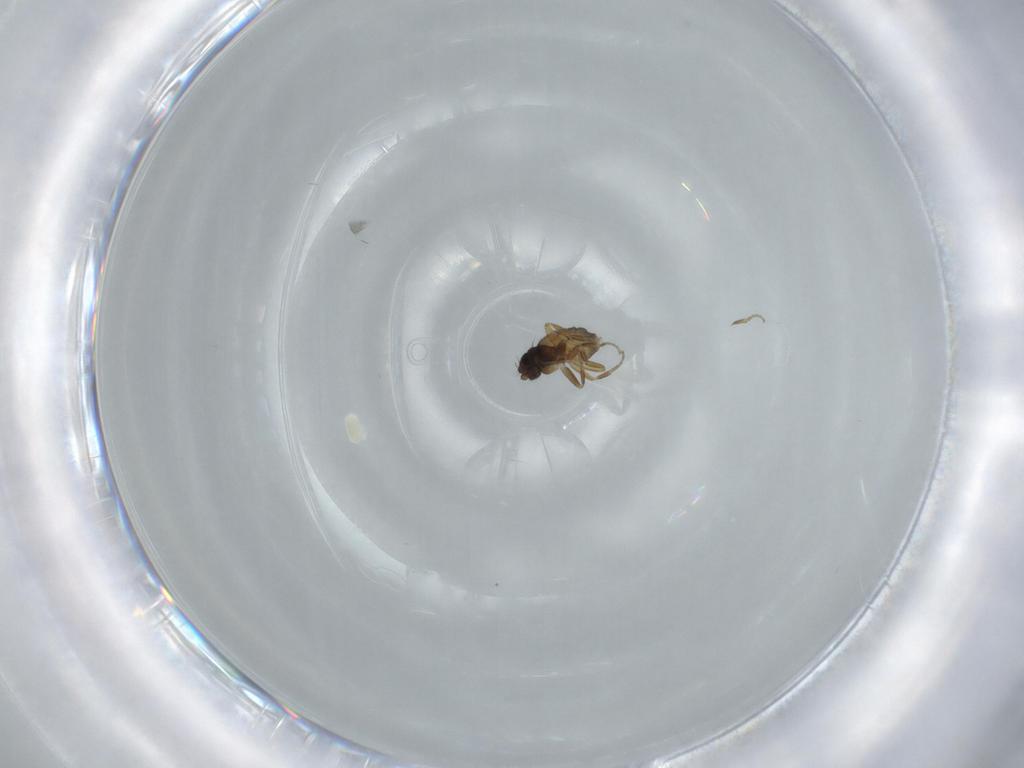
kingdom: Animalia
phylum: Arthropoda
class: Insecta
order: Diptera
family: Phoridae
